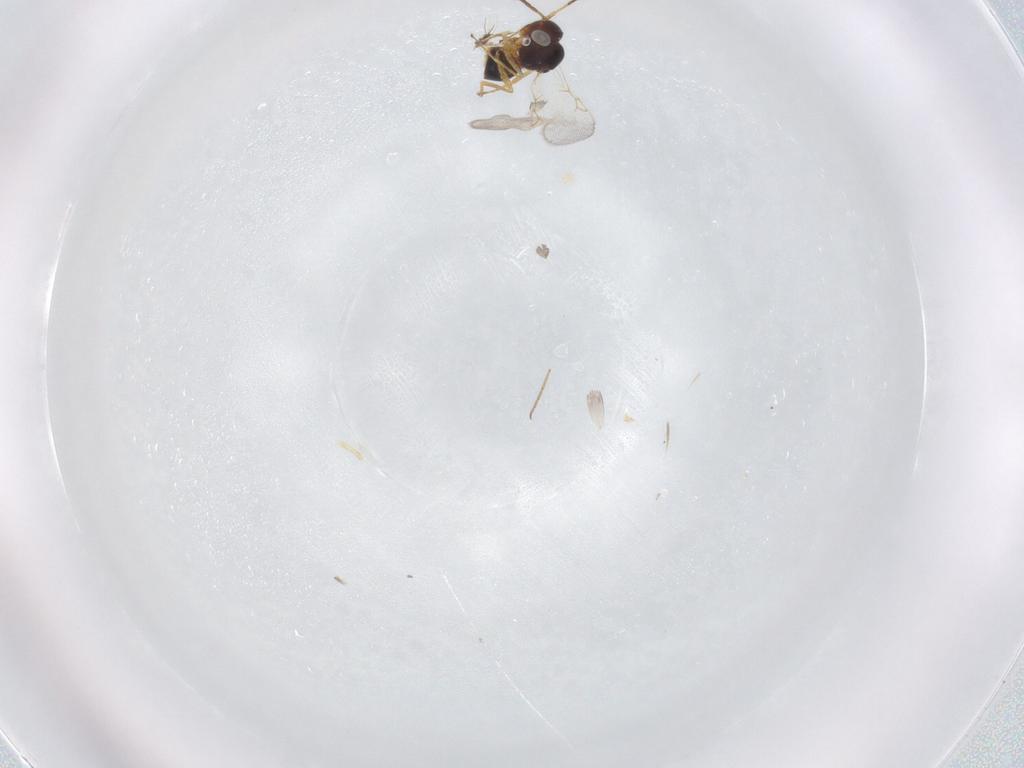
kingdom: Animalia
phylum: Arthropoda
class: Insecta
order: Hymenoptera
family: Figitidae
